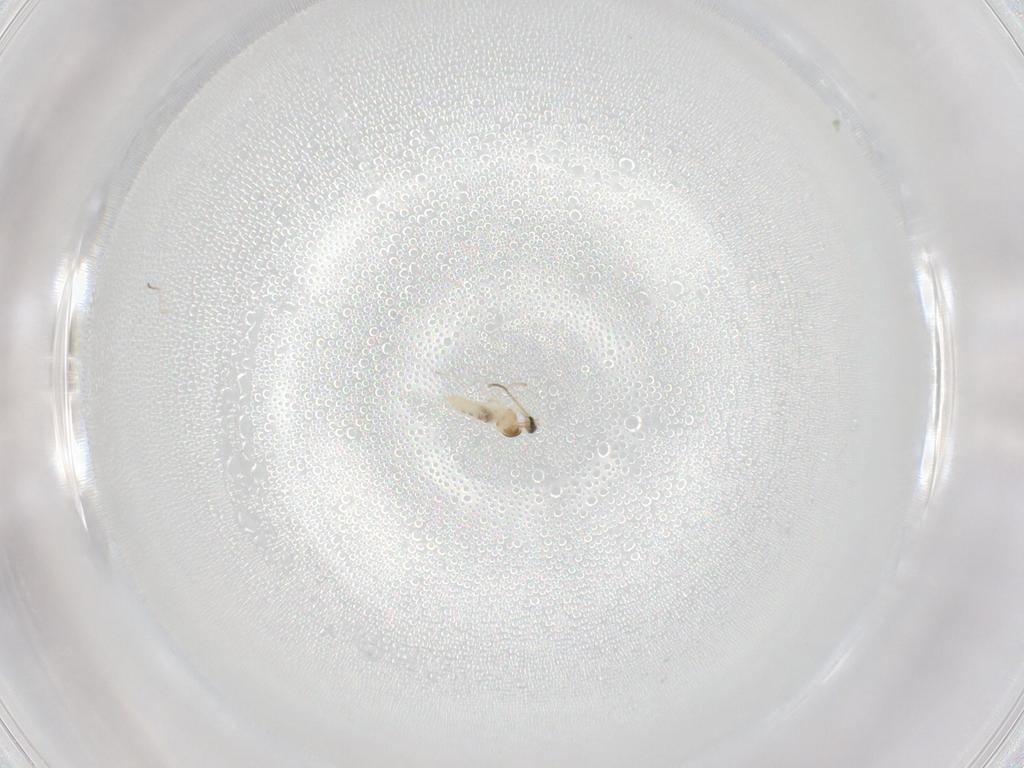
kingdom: Animalia
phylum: Arthropoda
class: Insecta
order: Diptera
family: Cecidomyiidae
